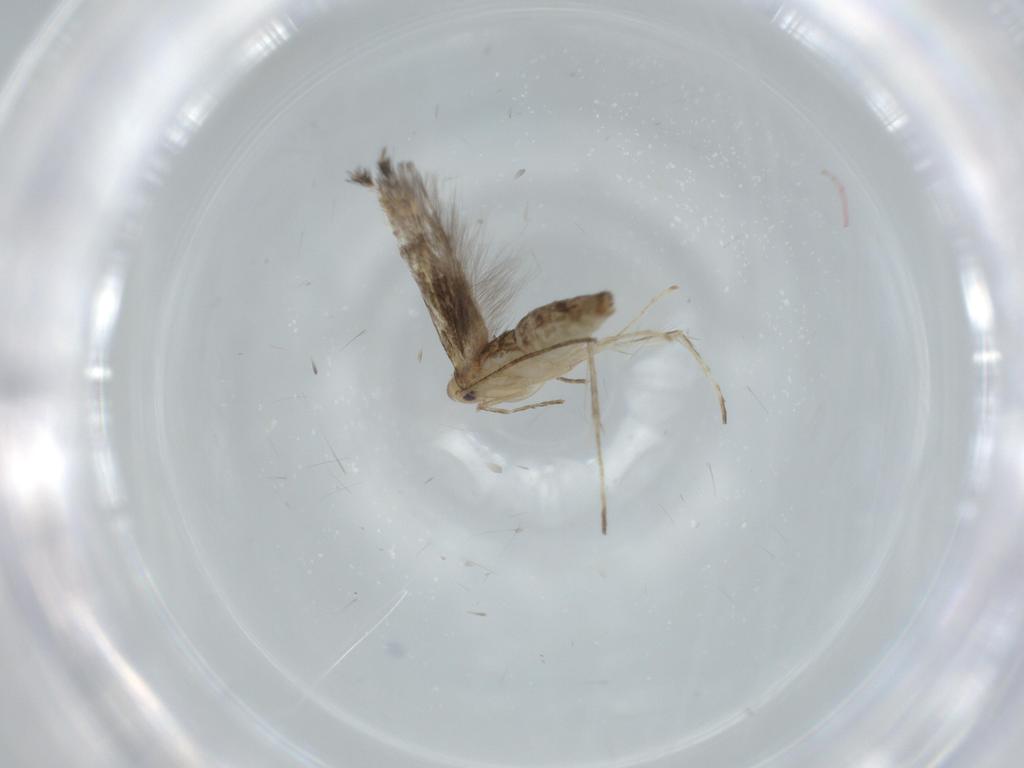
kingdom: Animalia
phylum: Arthropoda
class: Insecta
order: Lepidoptera
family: Nepticulidae
